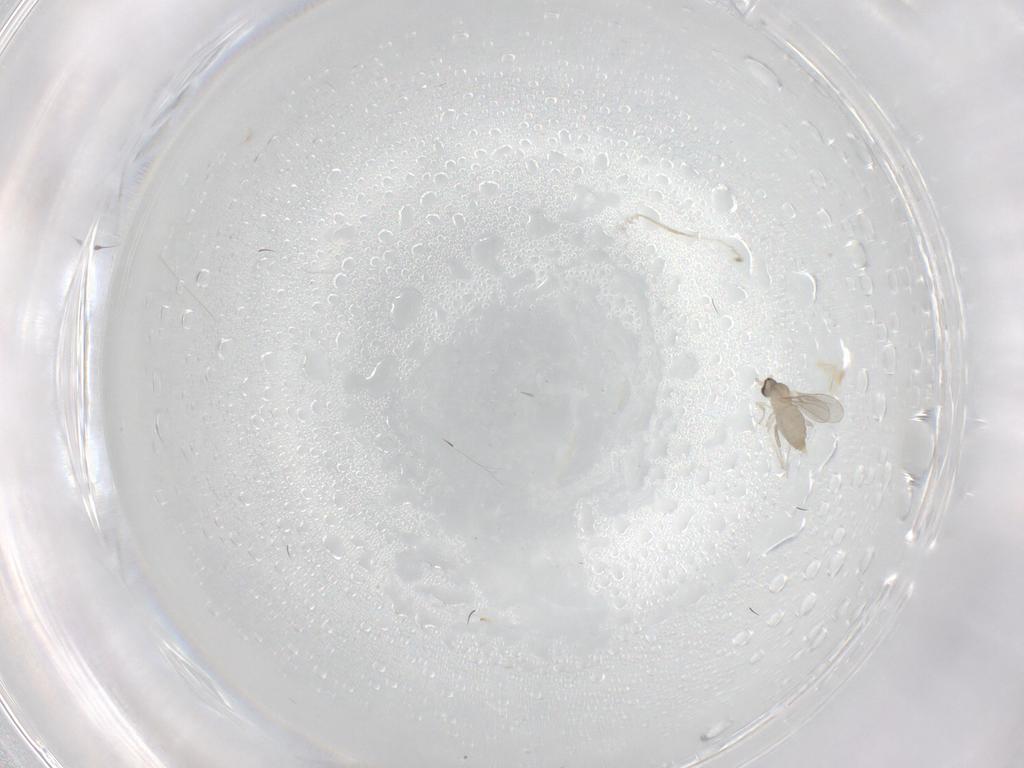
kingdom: Animalia
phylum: Arthropoda
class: Insecta
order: Diptera
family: Cecidomyiidae
